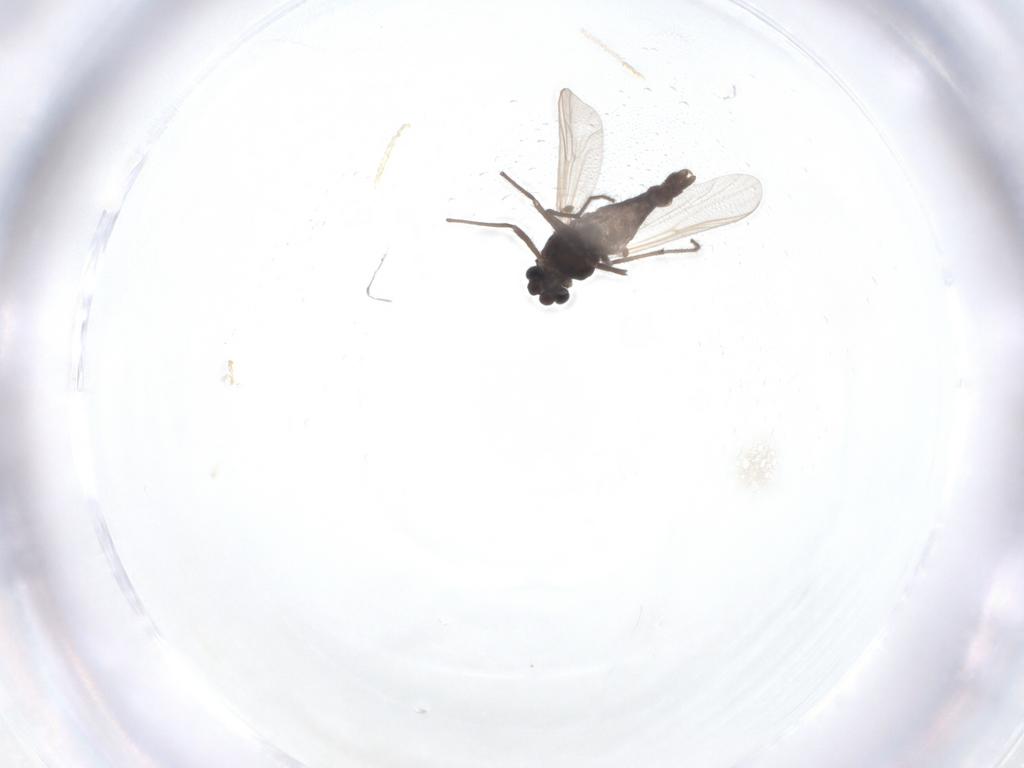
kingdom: Animalia
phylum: Arthropoda
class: Insecta
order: Diptera
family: Chironomidae
